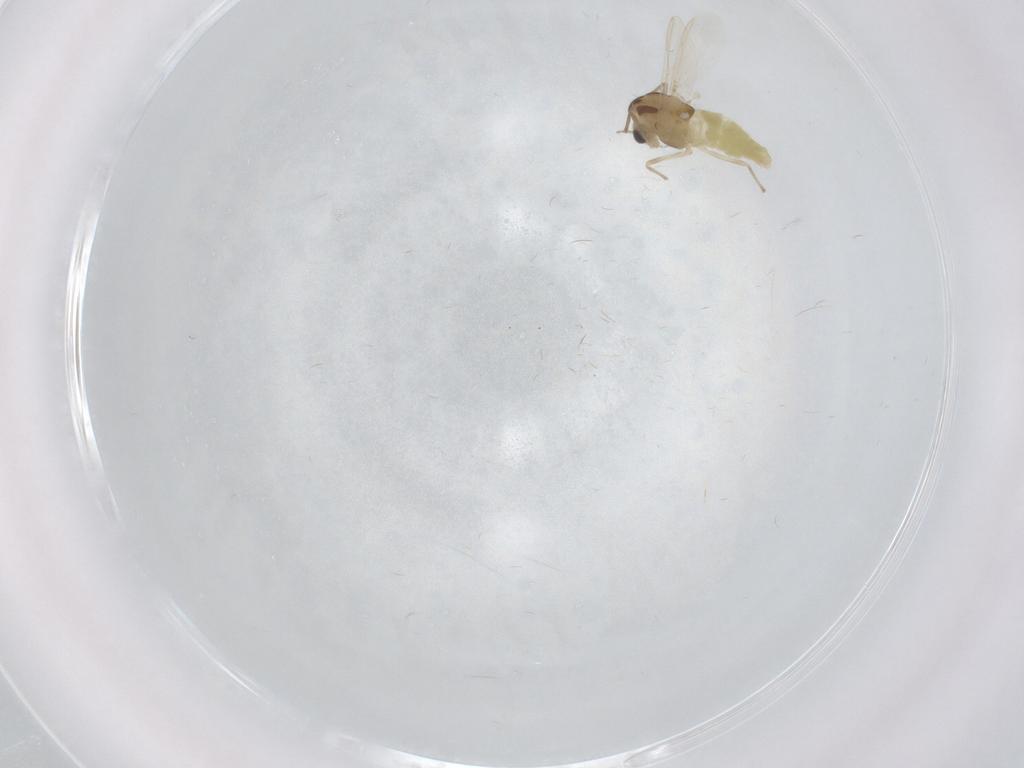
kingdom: Animalia
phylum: Arthropoda
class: Insecta
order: Diptera
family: Chironomidae
